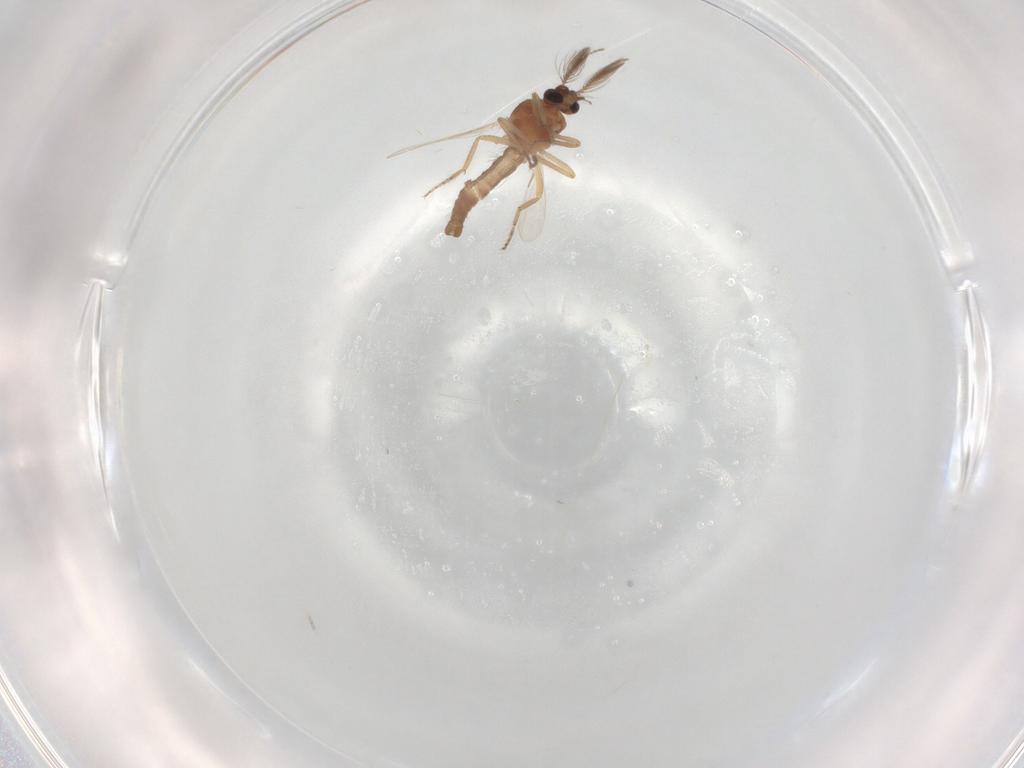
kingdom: Animalia
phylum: Arthropoda
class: Insecta
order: Diptera
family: Ceratopogonidae
